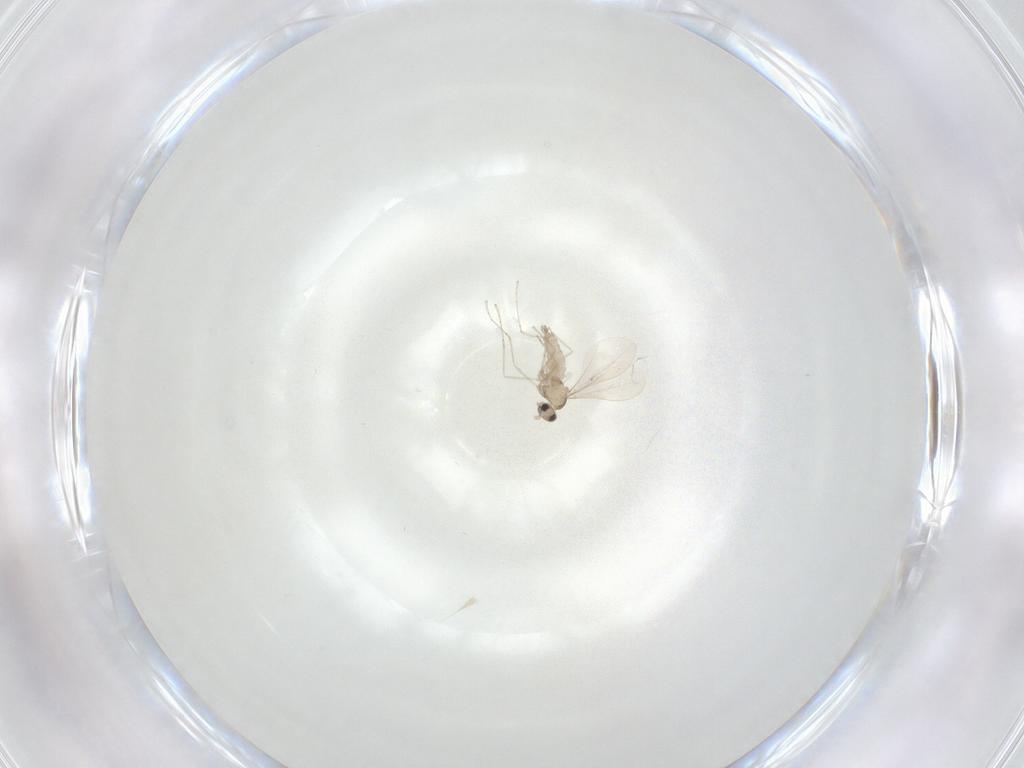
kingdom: Animalia
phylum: Arthropoda
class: Insecta
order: Diptera
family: Cecidomyiidae
